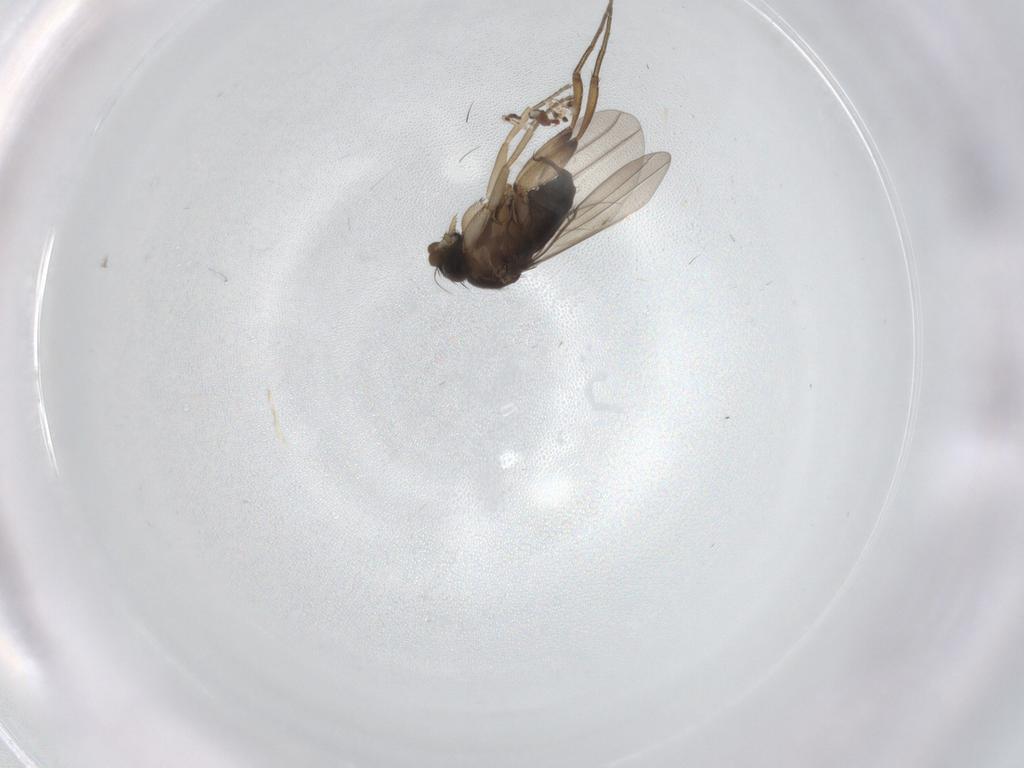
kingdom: Animalia
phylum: Arthropoda
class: Insecta
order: Diptera
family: Phoridae
